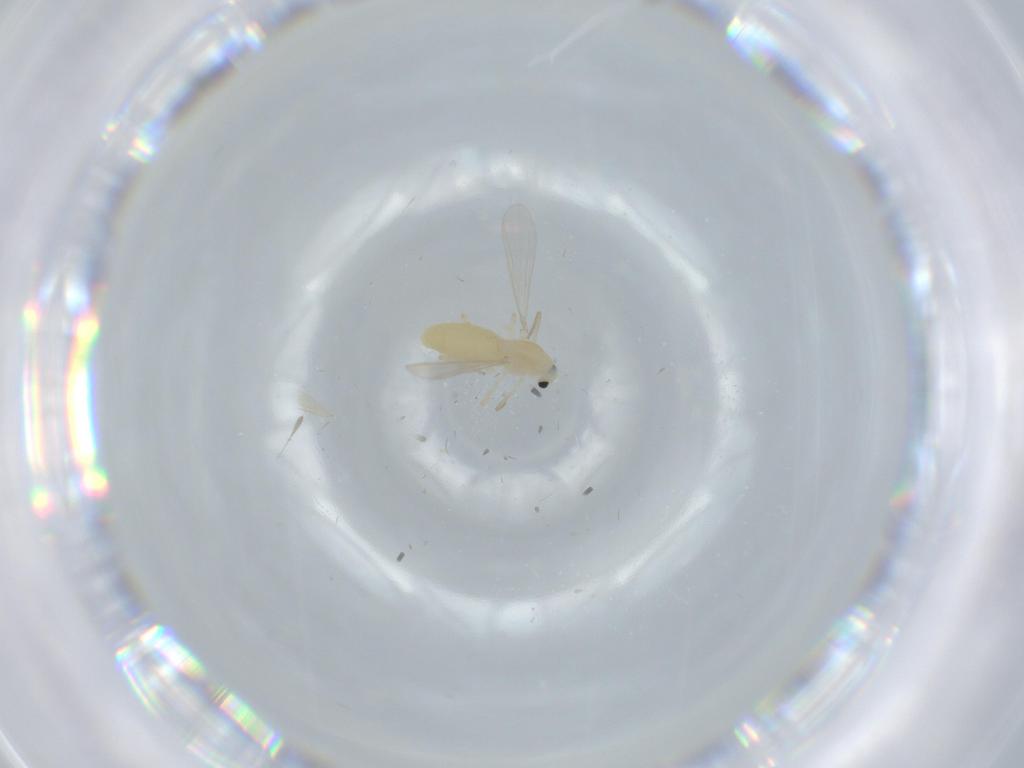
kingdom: Animalia
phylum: Arthropoda
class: Insecta
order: Diptera
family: Chironomidae
